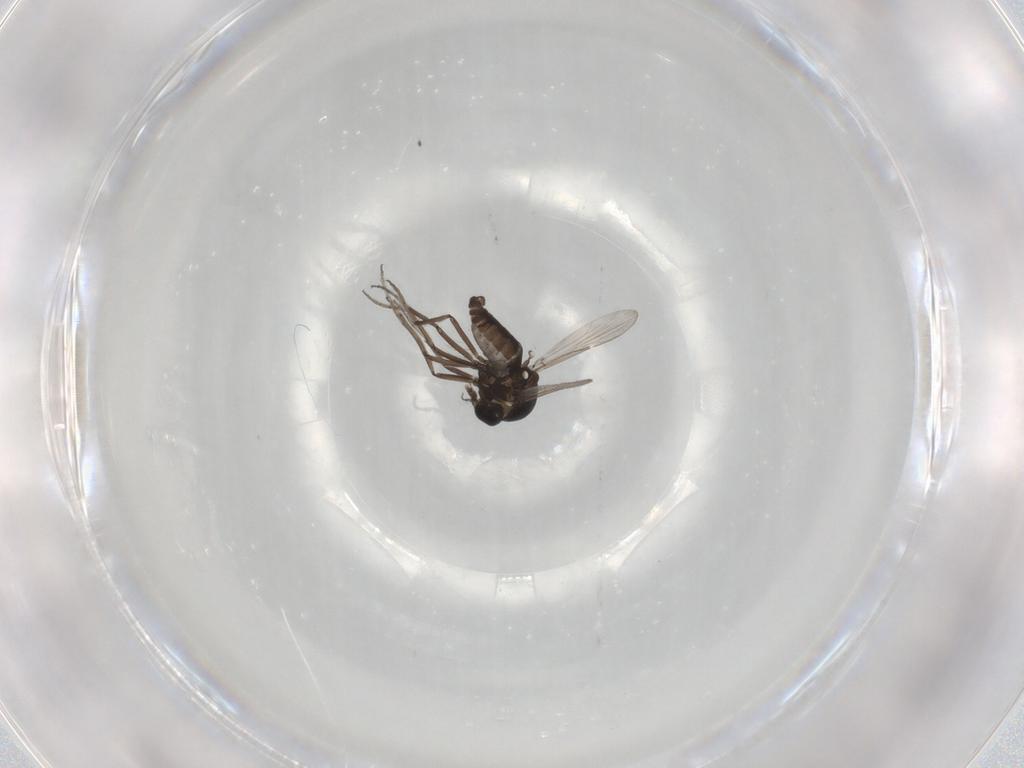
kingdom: Animalia
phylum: Arthropoda
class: Insecta
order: Diptera
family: Ceratopogonidae
